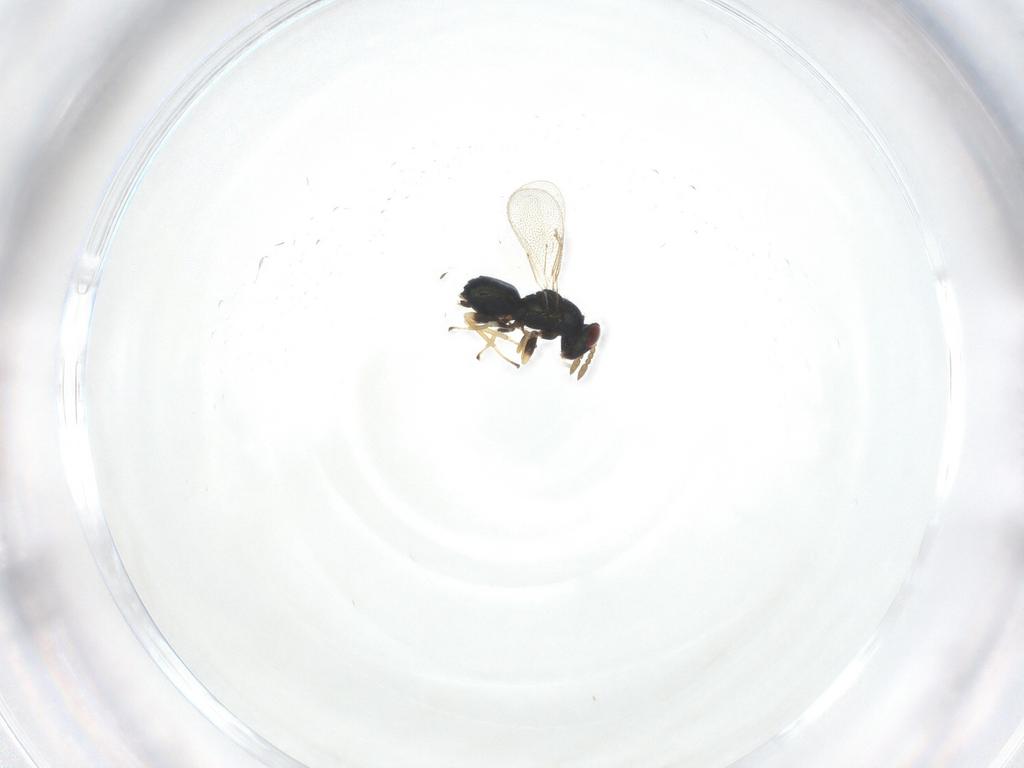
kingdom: Animalia
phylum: Arthropoda
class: Insecta
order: Hymenoptera
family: Eulophidae
